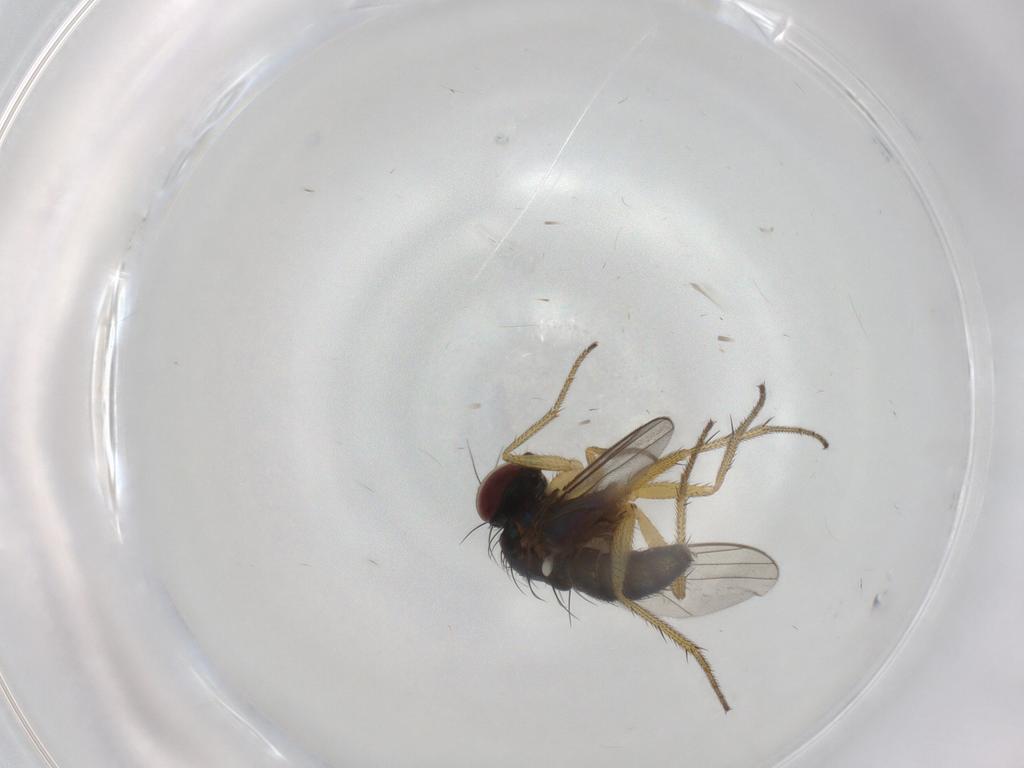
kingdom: Animalia
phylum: Arthropoda
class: Insecta
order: Diptera
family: Dolichopodidae
